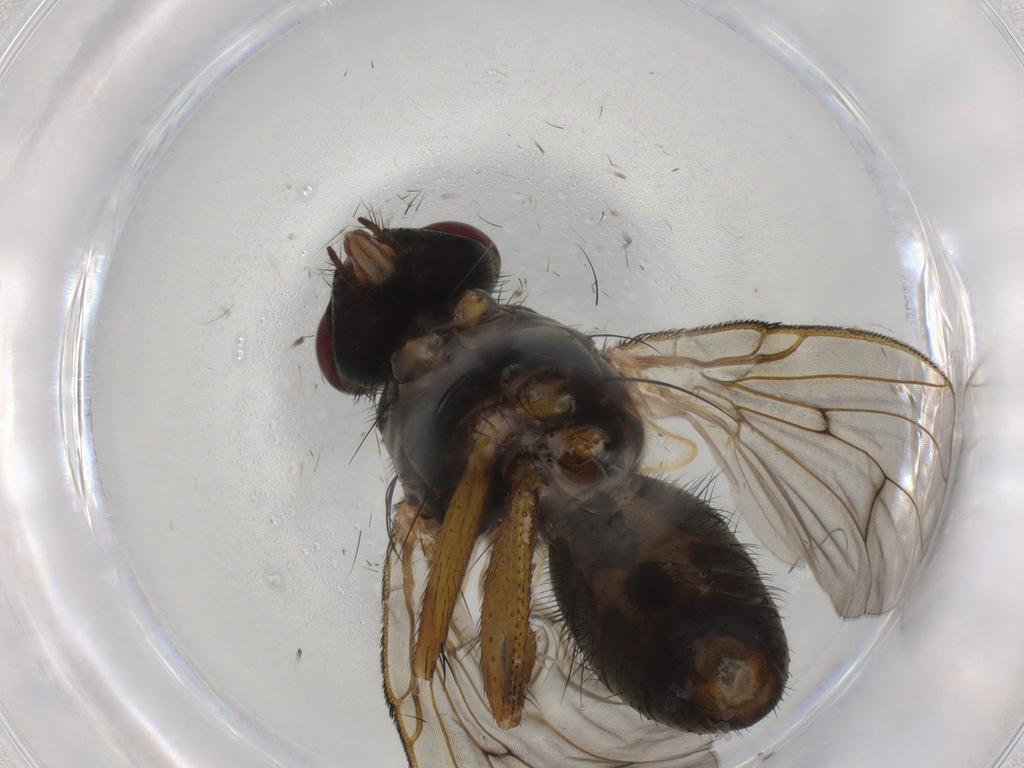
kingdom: Animalia
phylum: Arthropoda
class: Insecta
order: Diptera
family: Muscidae
